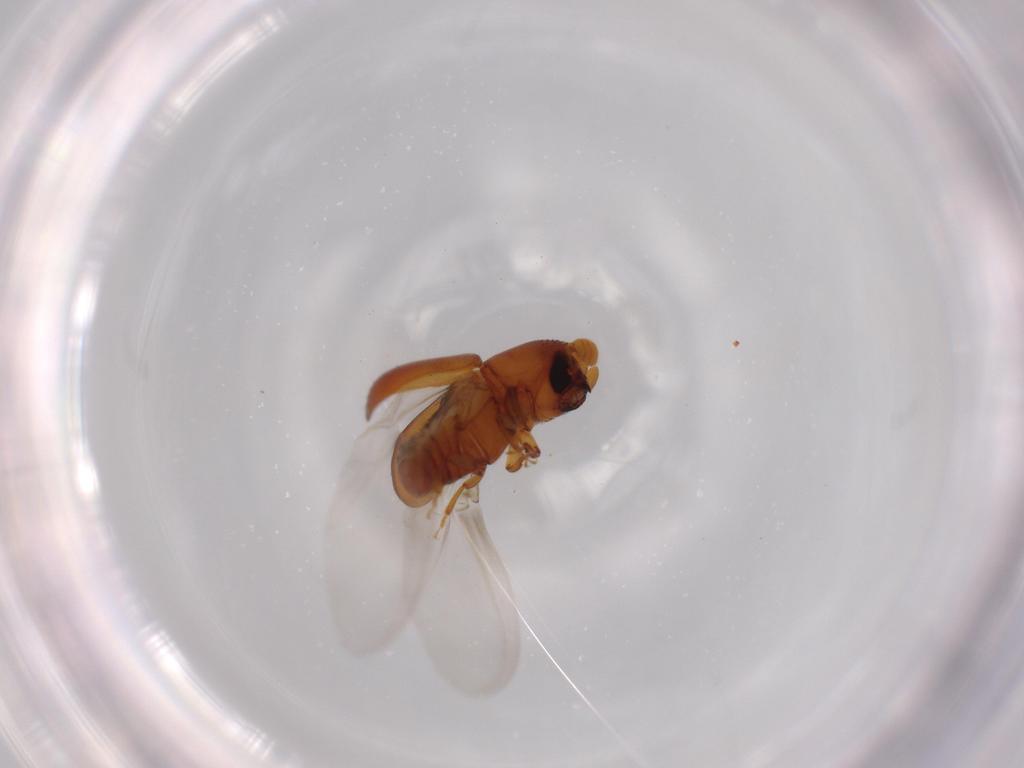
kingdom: Animalia
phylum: Arthropoda
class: Insecta
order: Coleoptera
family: Curculionidae
